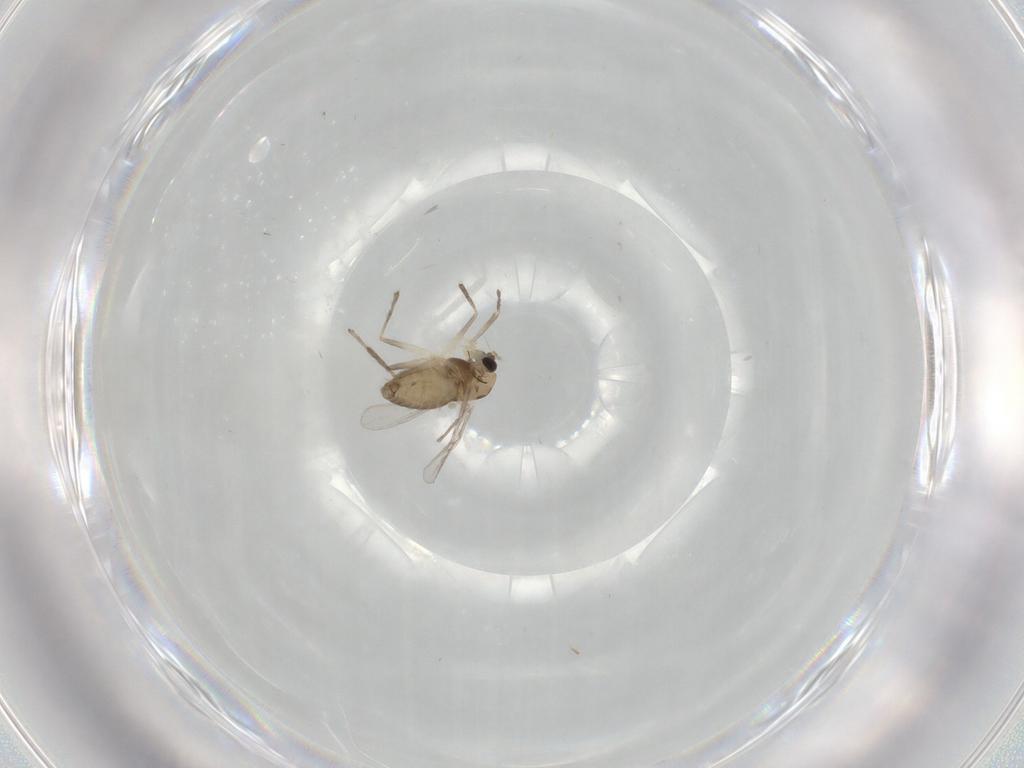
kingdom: Animalia
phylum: Arthropoda
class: Insecta
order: Diptera
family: Chironomidae
